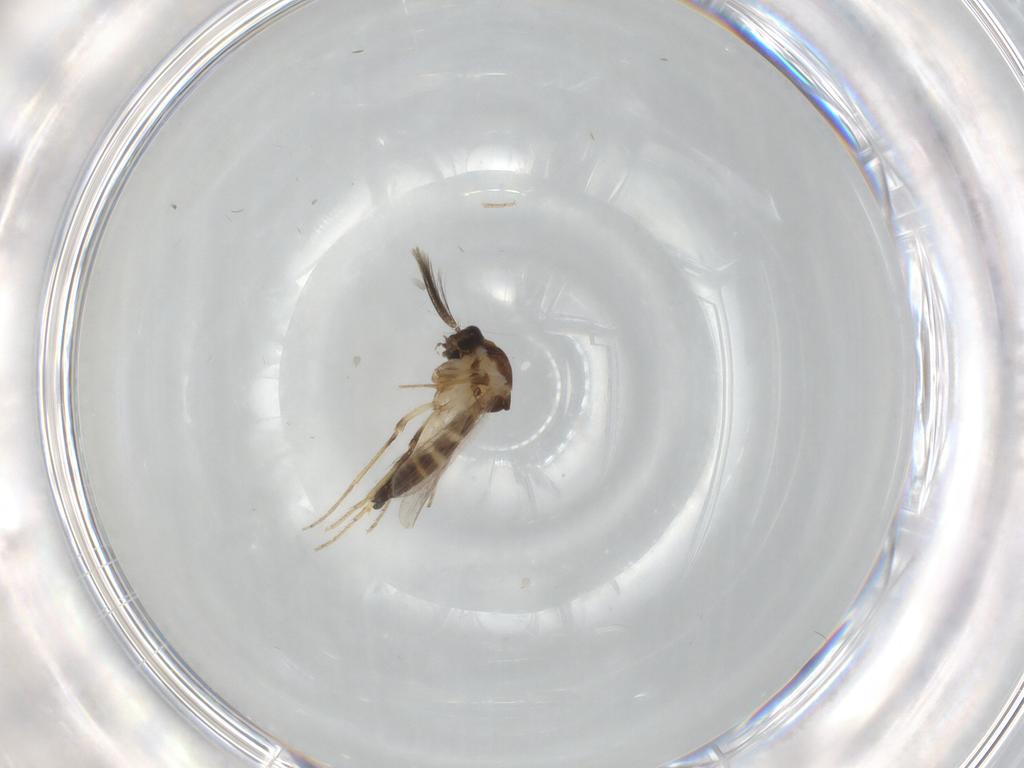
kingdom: Animalia
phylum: Arthropoda
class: Insecta
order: Diptera
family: Ceratopogonidae
